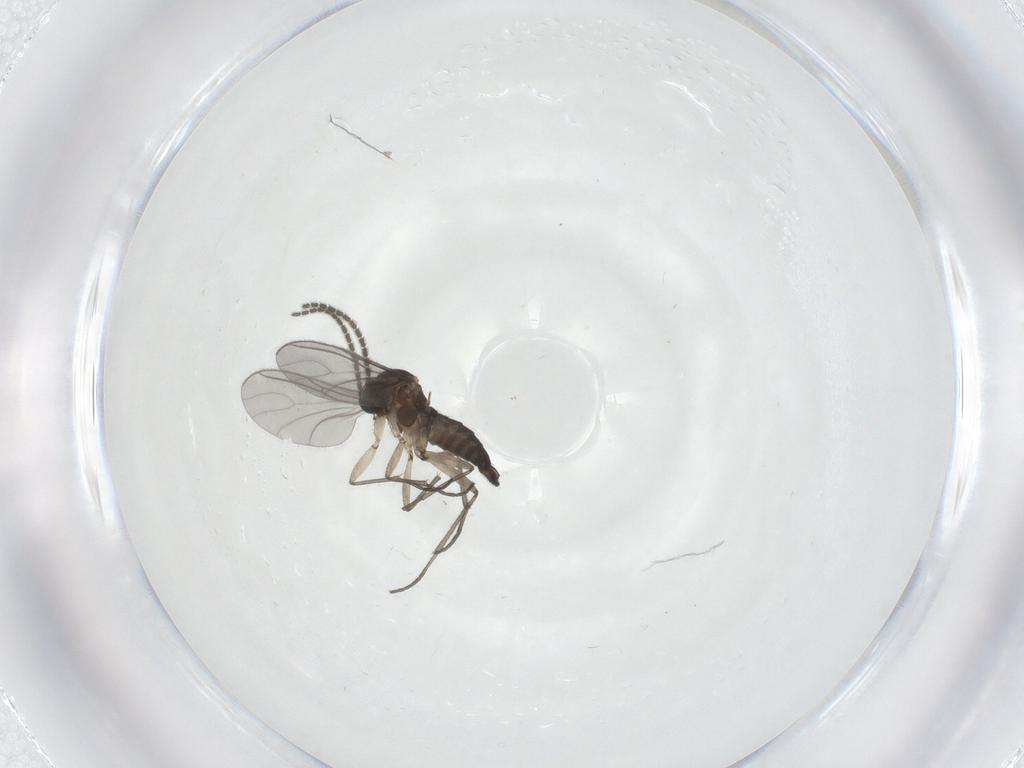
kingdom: Animalia
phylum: Arthropoda
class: Insecta
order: Diptera
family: Sciaridae
